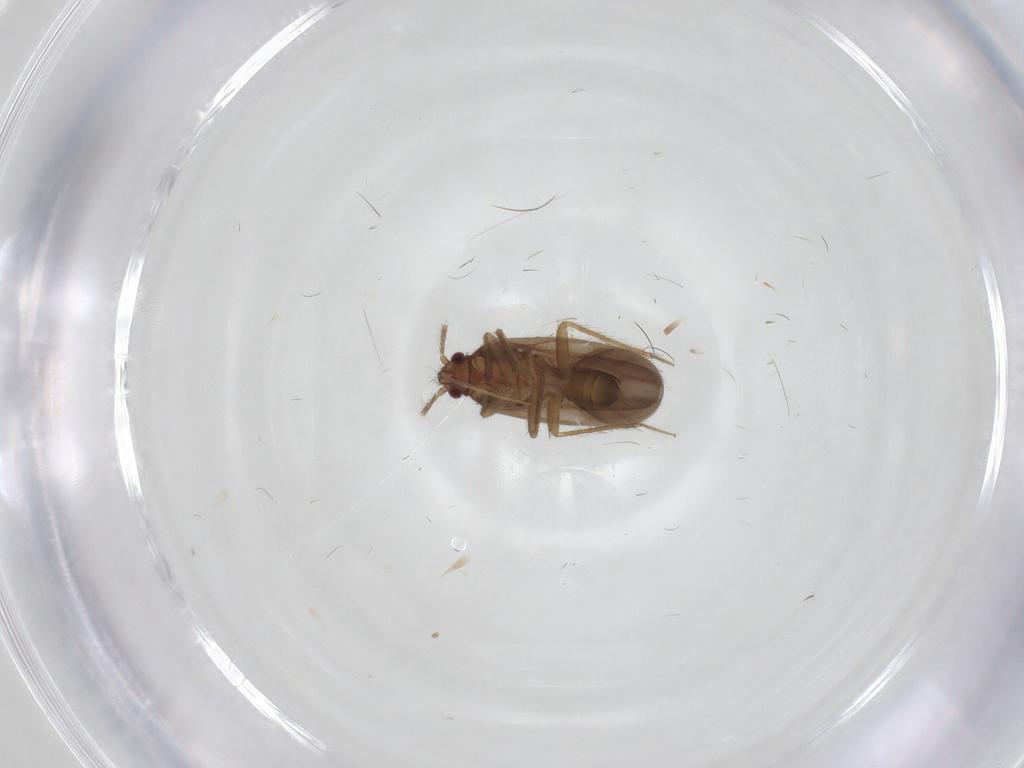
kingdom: Animalia
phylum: Arthropoda
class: Insecta
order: Hemiptera
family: Ceratocombidae
